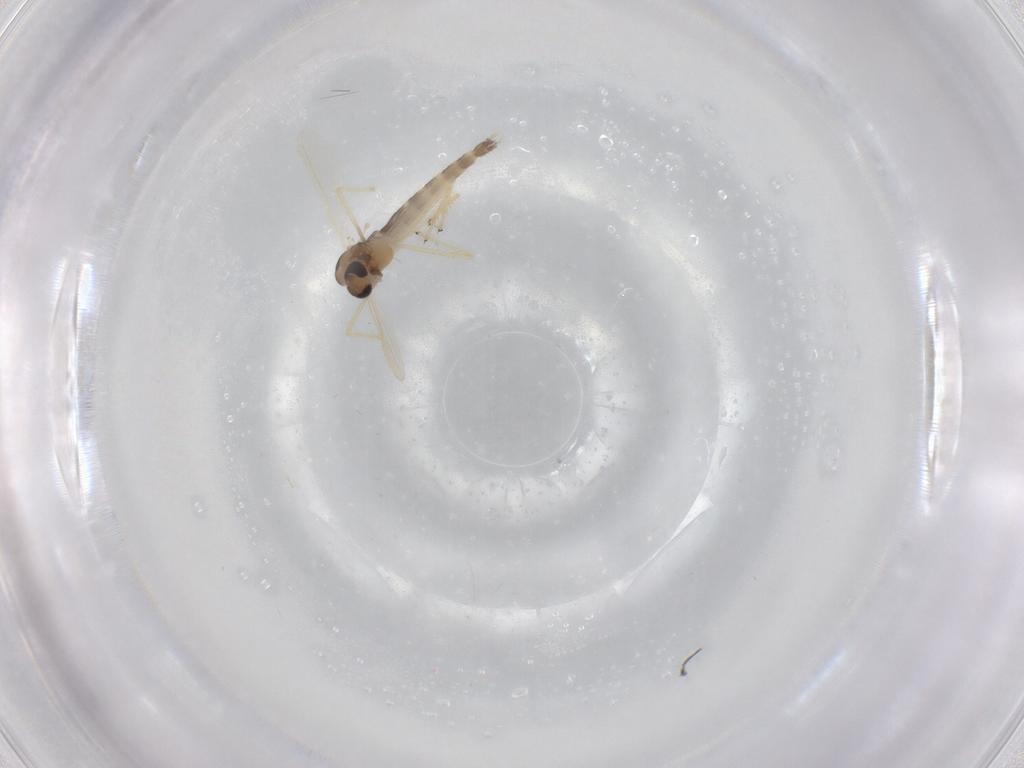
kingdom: Animalia
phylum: Arthropoda
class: Insecta
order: Diptera
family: Chironomidae
